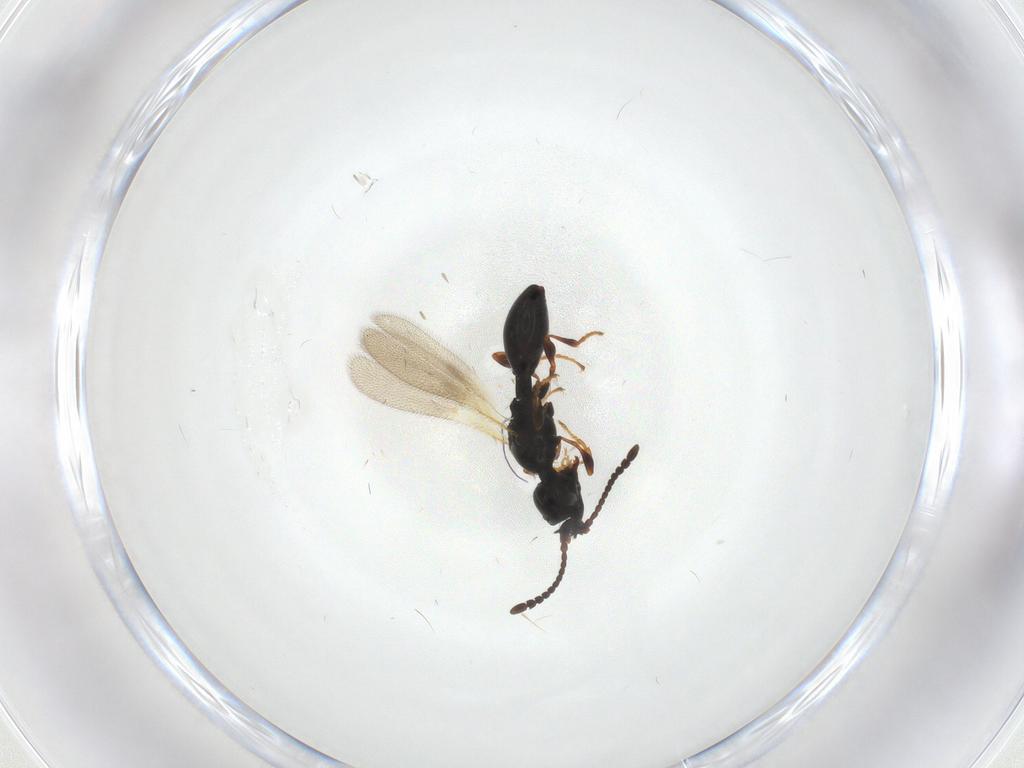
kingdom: Animalia
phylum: Arthropoda
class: Insecta
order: Hymenoptera
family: Diapriidae
